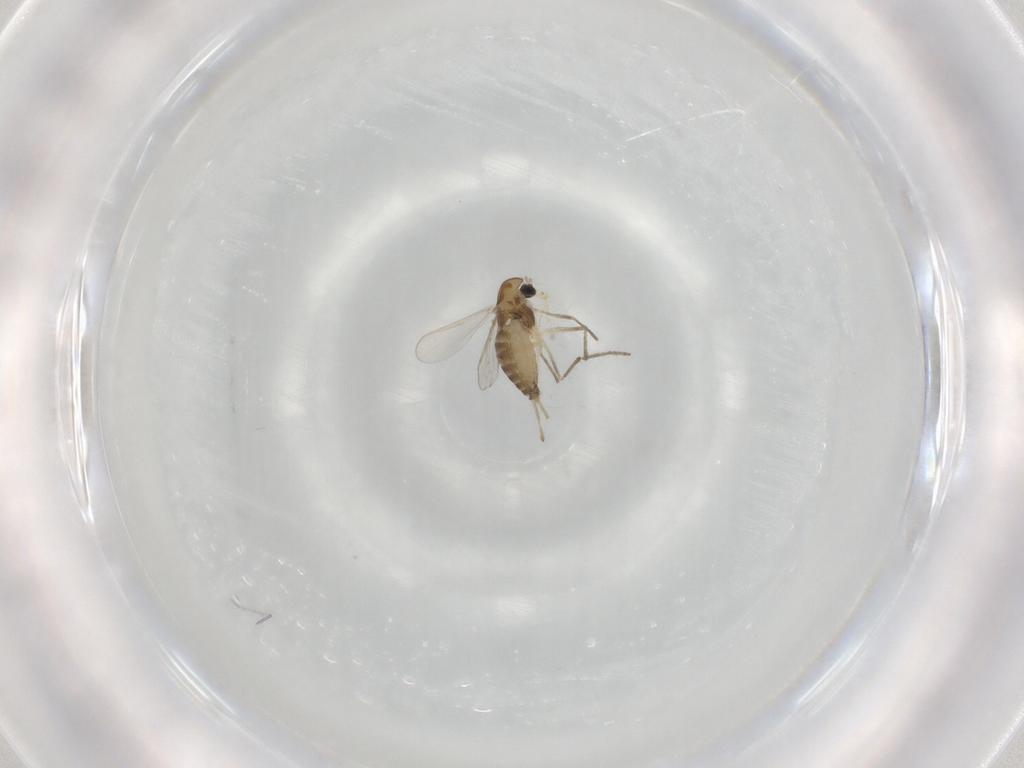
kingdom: Animalia
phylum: Arthropoda
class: Insecta
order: Diptera
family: Chironomidae
